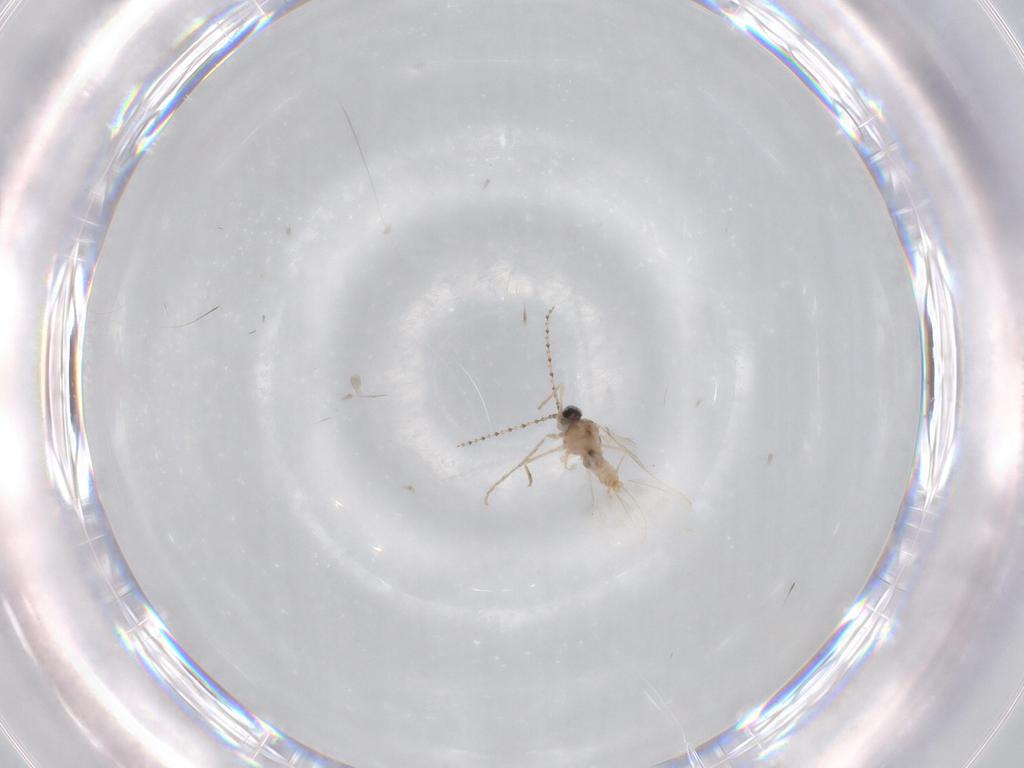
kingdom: Animalia
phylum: Arthropoda
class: Insecta
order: Diptera
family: Cecidomyiidae
